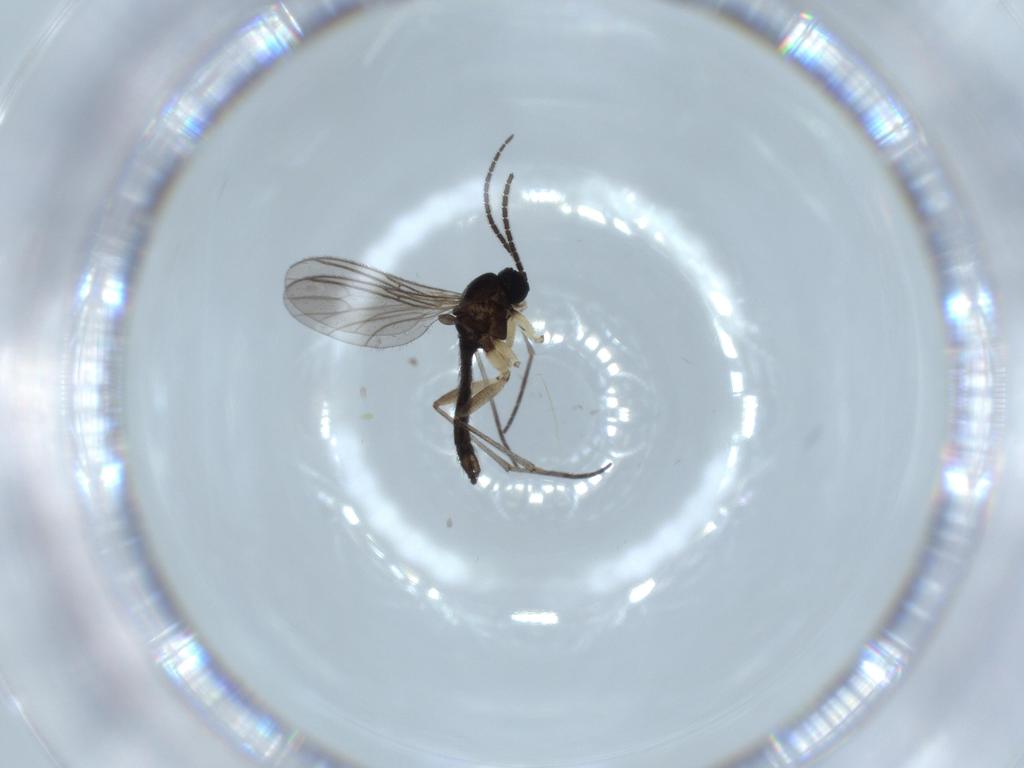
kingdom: Animalia
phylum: Arthropoda
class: Insecta
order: Diptera
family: Sciaridae
